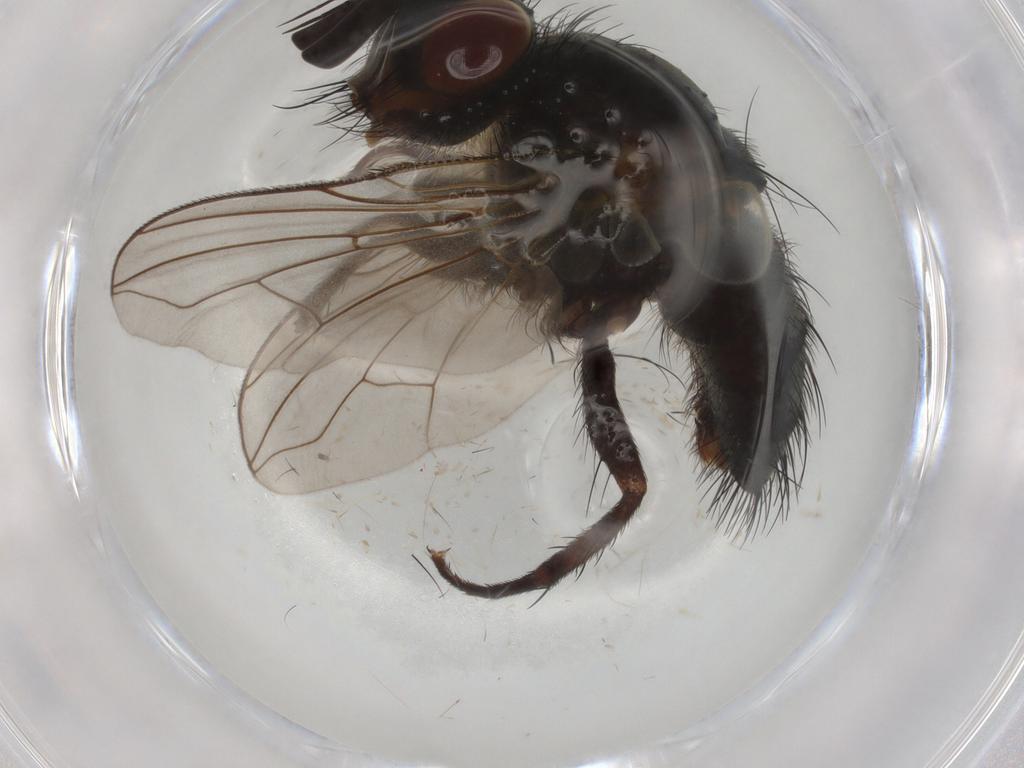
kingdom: Animalia
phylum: Arthropoda
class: Insecta
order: Diptera
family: Tachinidae
